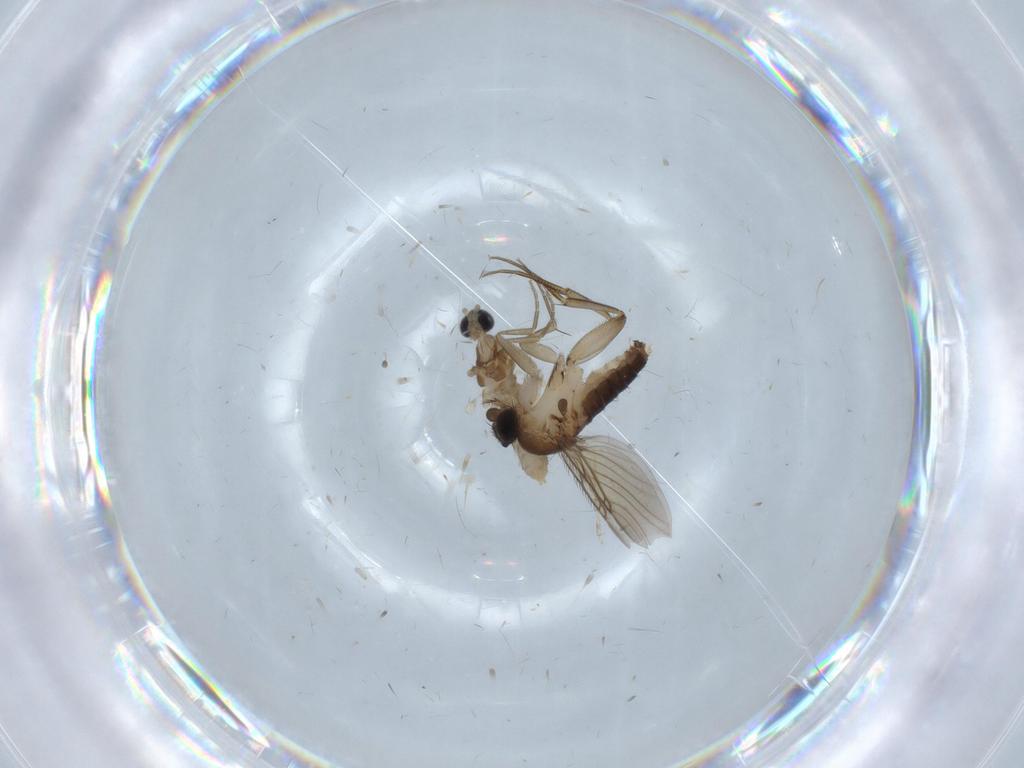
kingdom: Animalia
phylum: Arthropoda
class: Insecta
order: Diptera
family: Phoridae
